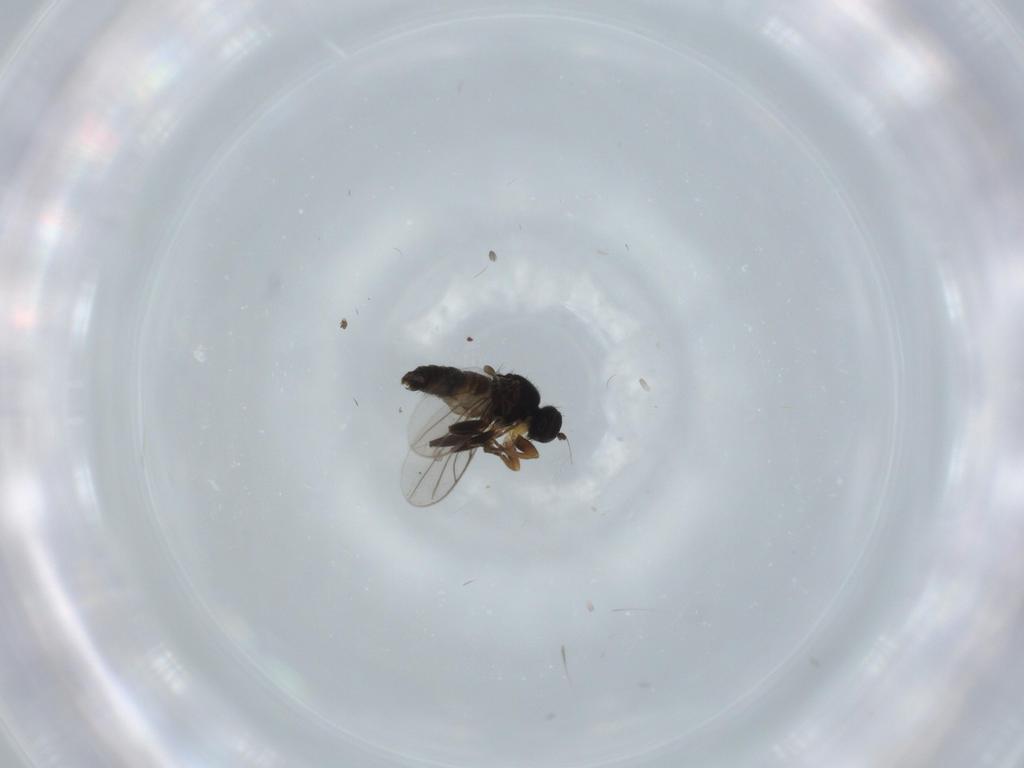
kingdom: Animalia
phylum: Arthropoda
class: Insecta
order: Diptera
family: Hybotidae
